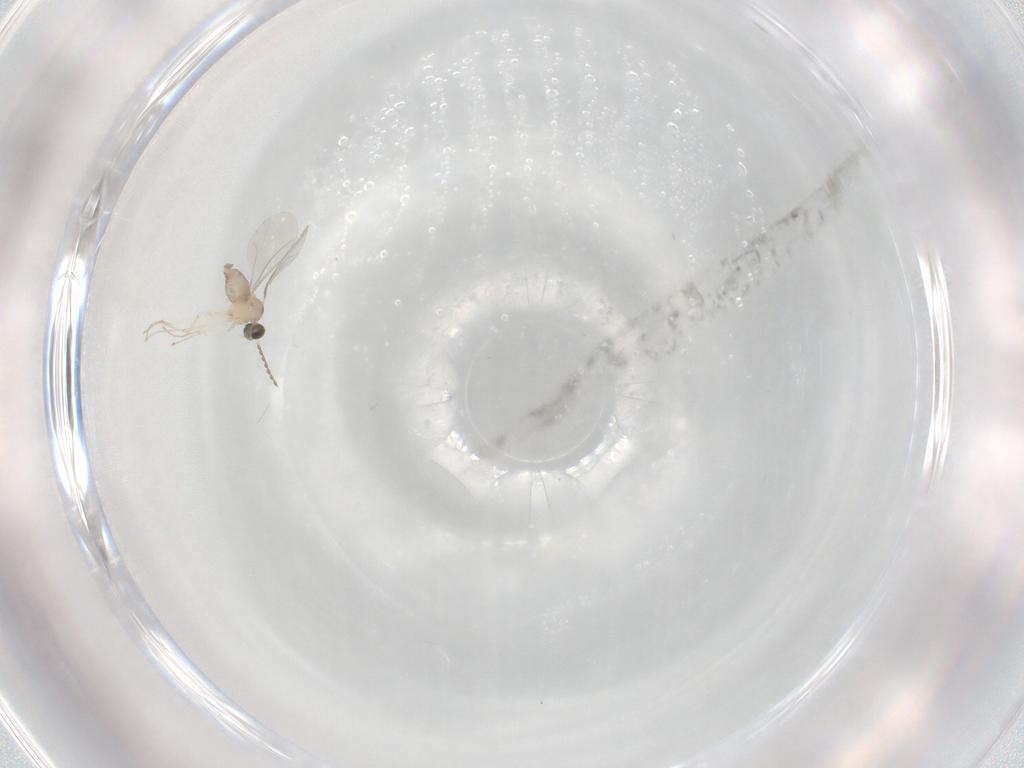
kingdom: Animalia
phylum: Arthropoda
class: Insecta
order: Diptera
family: Cecidomyiidae
